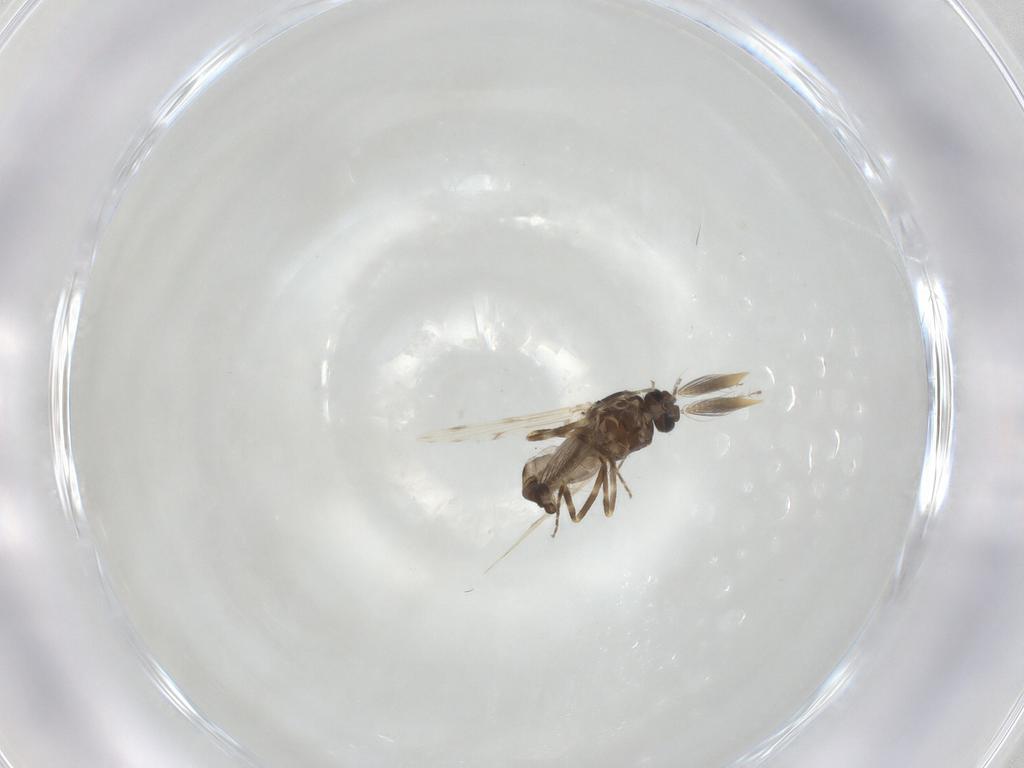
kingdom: Animalia
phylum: Arthropoda
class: Insecta
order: Diptera
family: Ceratopogonidae
